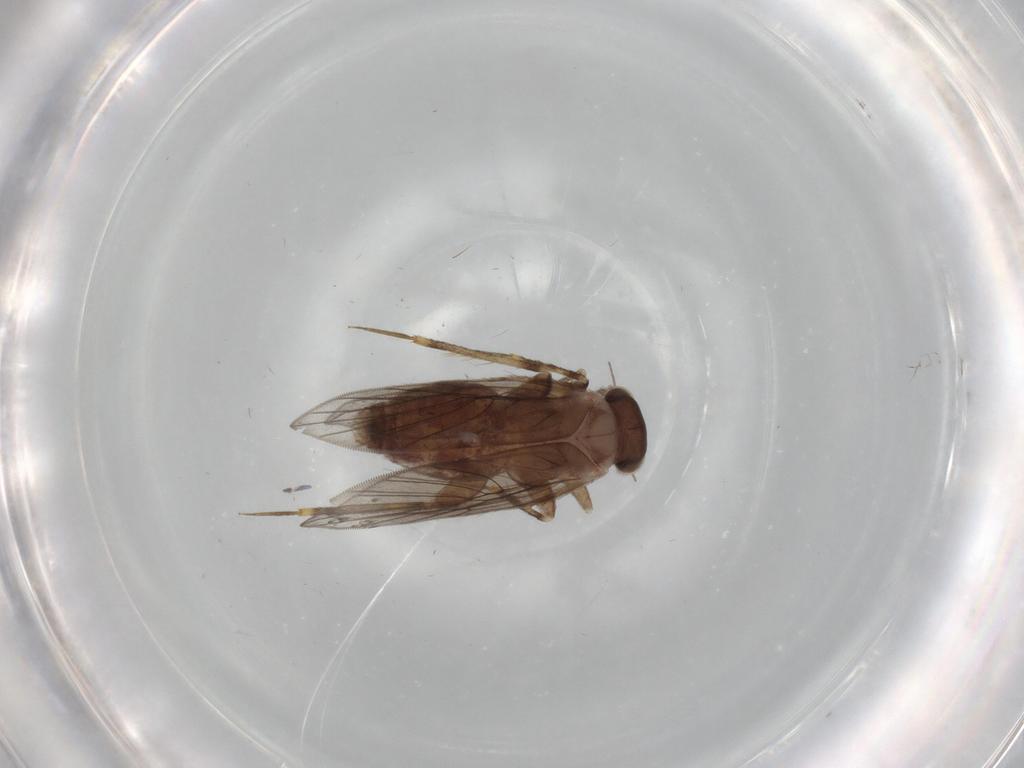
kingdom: Animalia
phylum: Arthropoda
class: Insecta
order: Psocodea
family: Lepidopsocidae
